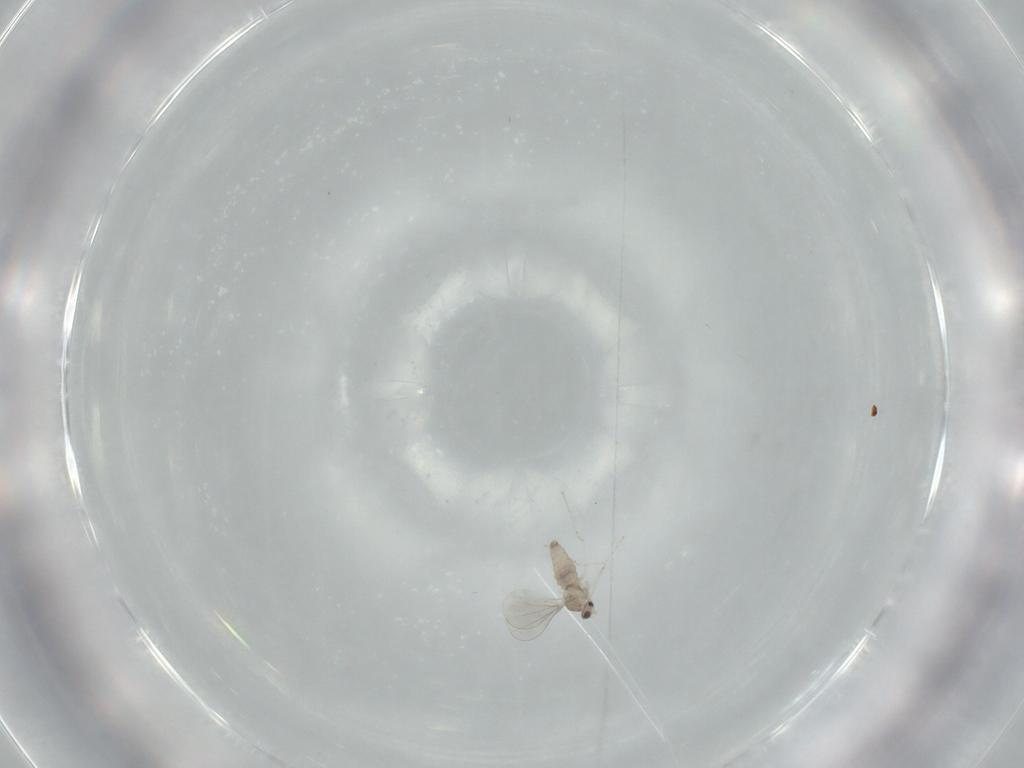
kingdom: Animalia
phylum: Arthropoda
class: Insecta
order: Diptera
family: Cecidomyiidae
